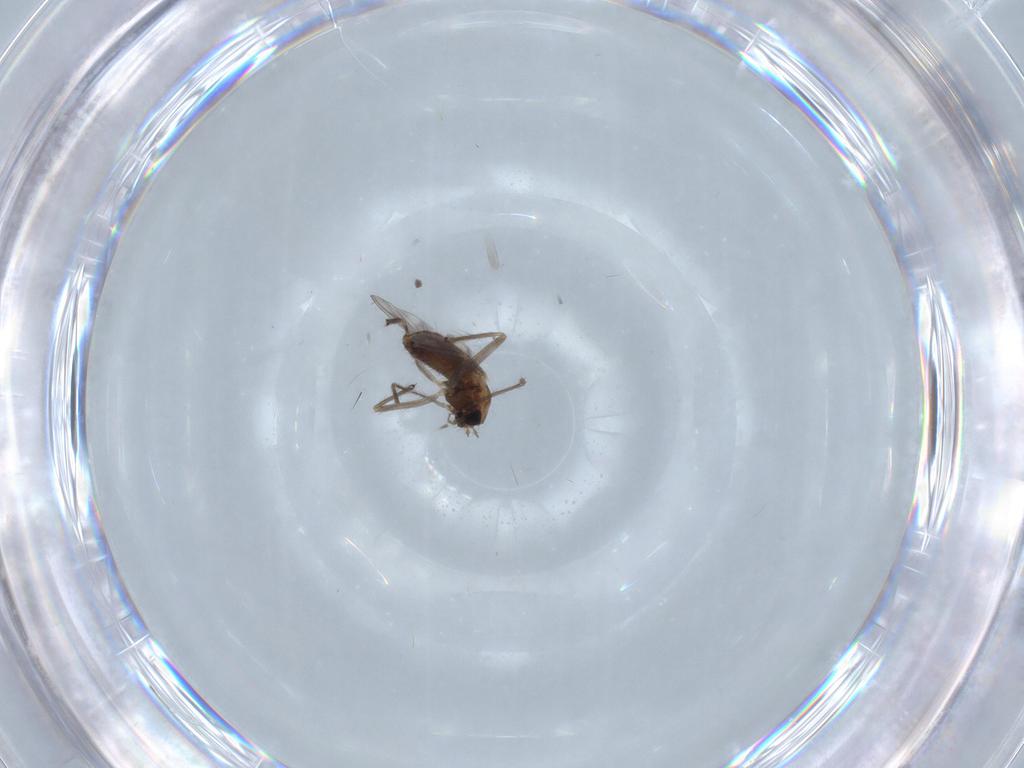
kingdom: Animalia
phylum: Arthropoda
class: Insecta
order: Diptera
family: Chironomidae
